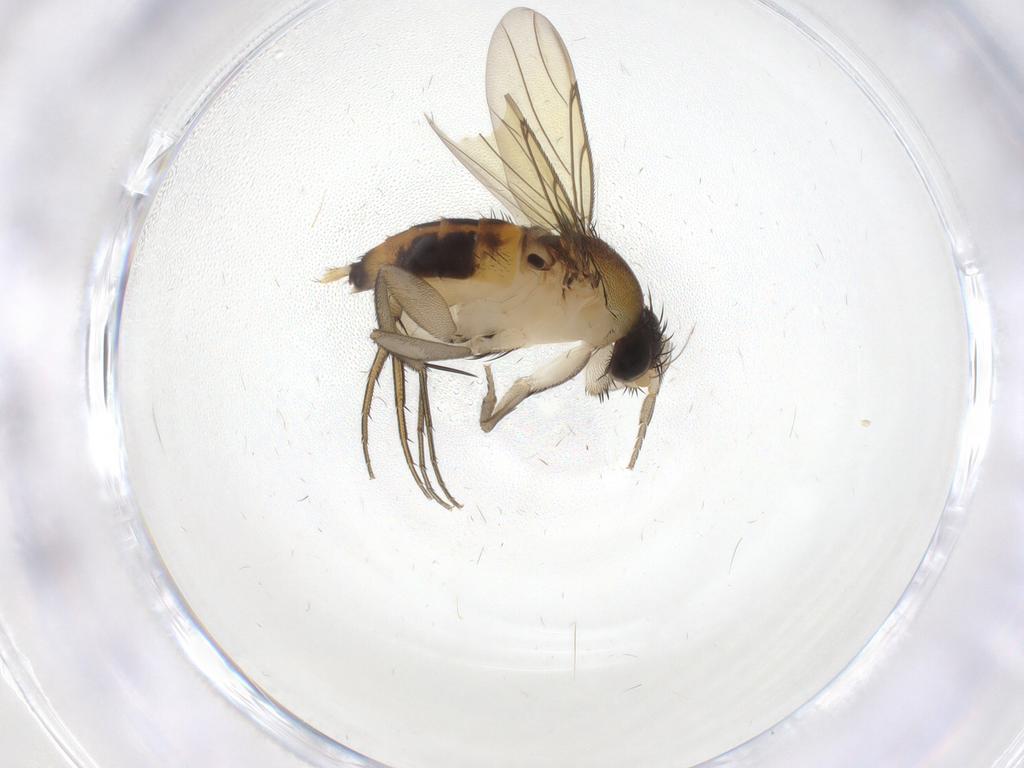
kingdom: Animalia
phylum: Arthropoda
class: Insecta
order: Diptera
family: Phoridae
